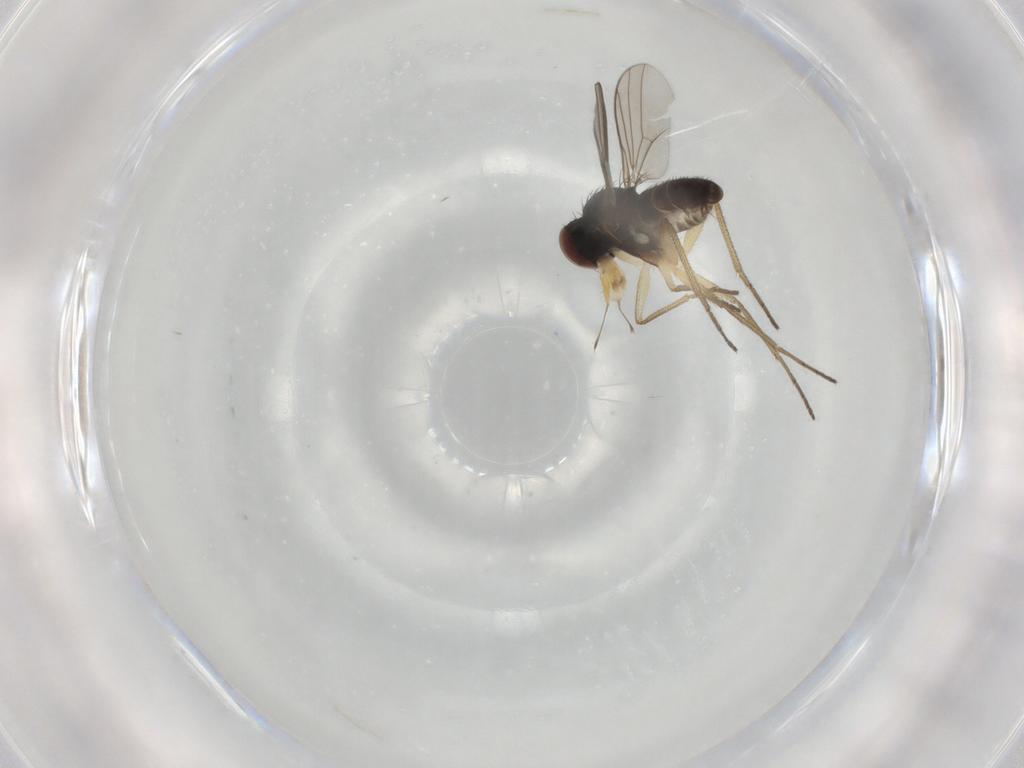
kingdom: Animalia
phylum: Arthropoda
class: Insecta
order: Diptera
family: Dolichopodidae
